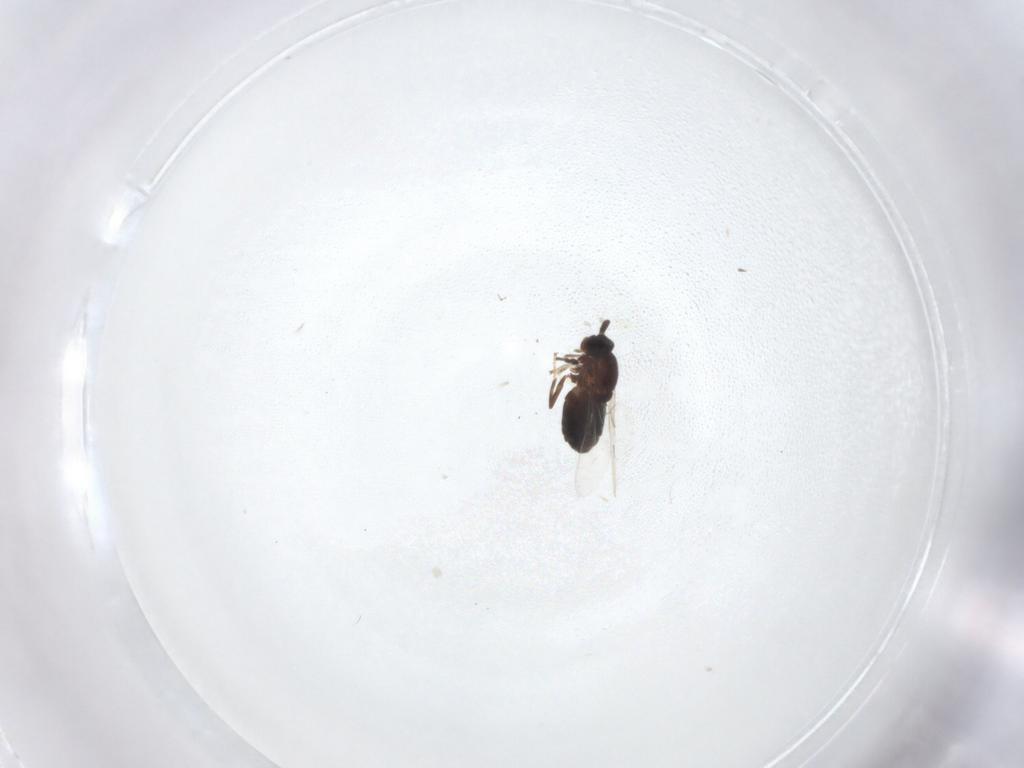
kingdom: Animalia
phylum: Arthropoda
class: Insecta
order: Diptera
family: Scatopsidae
